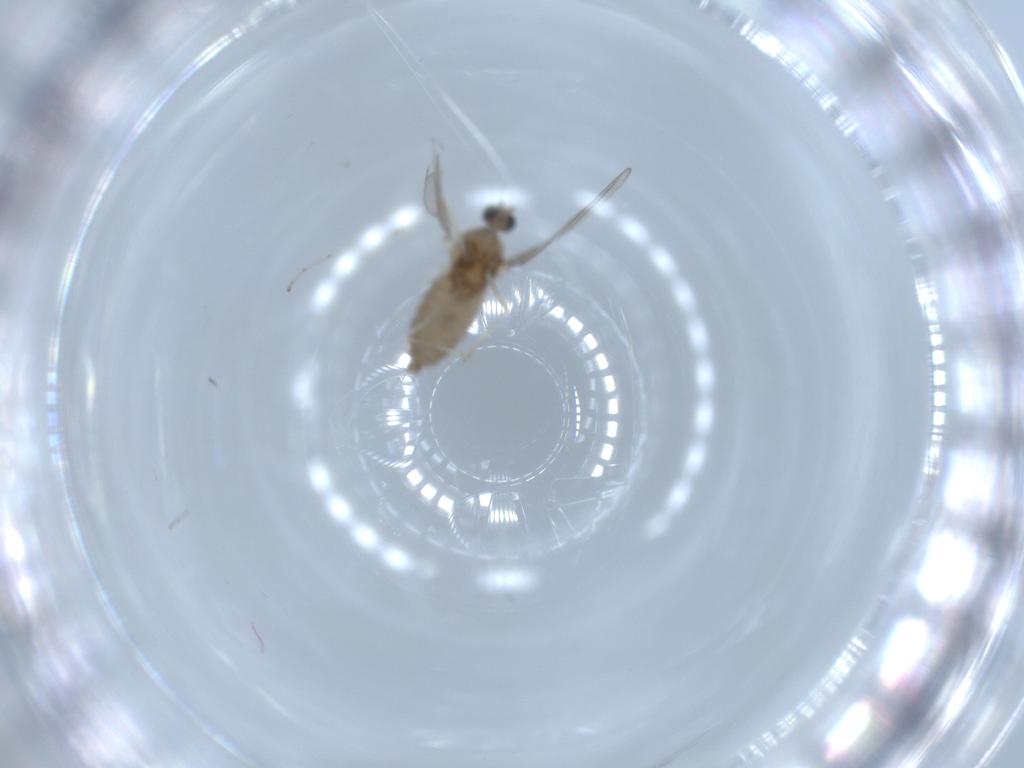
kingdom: Animalia
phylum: Arthropoda
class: Insecta
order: Diptera
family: Cecidomyiidae
